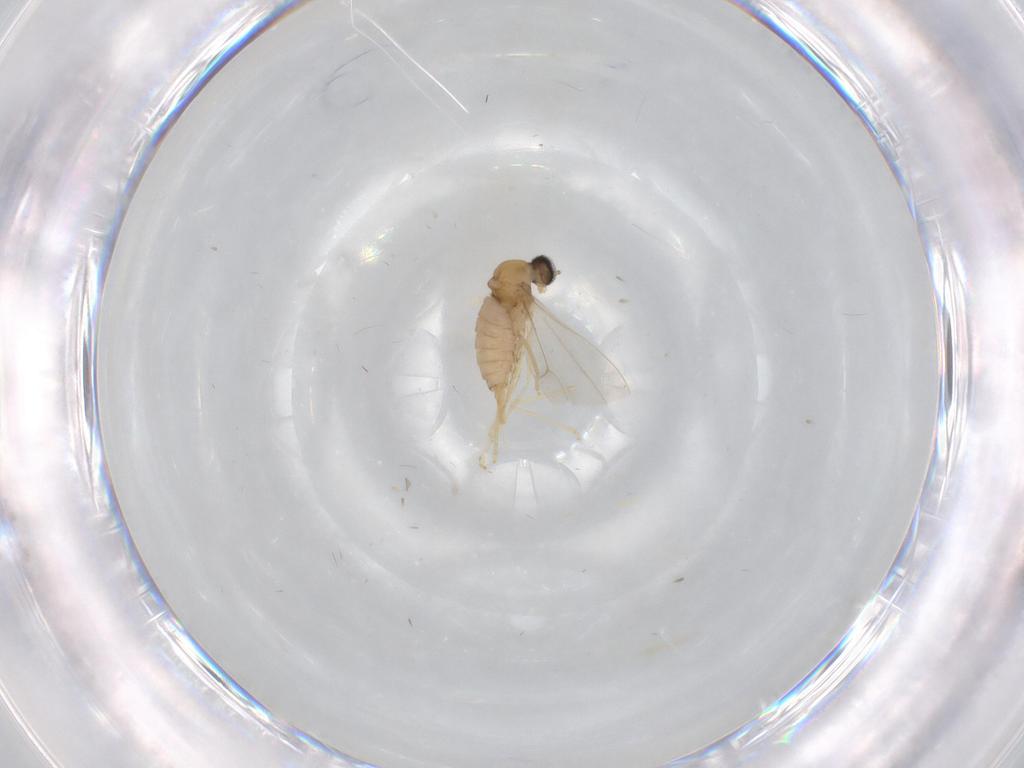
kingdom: Animalia
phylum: Arthropoda
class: Insecta
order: Diptera
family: Cecidomyiidae
